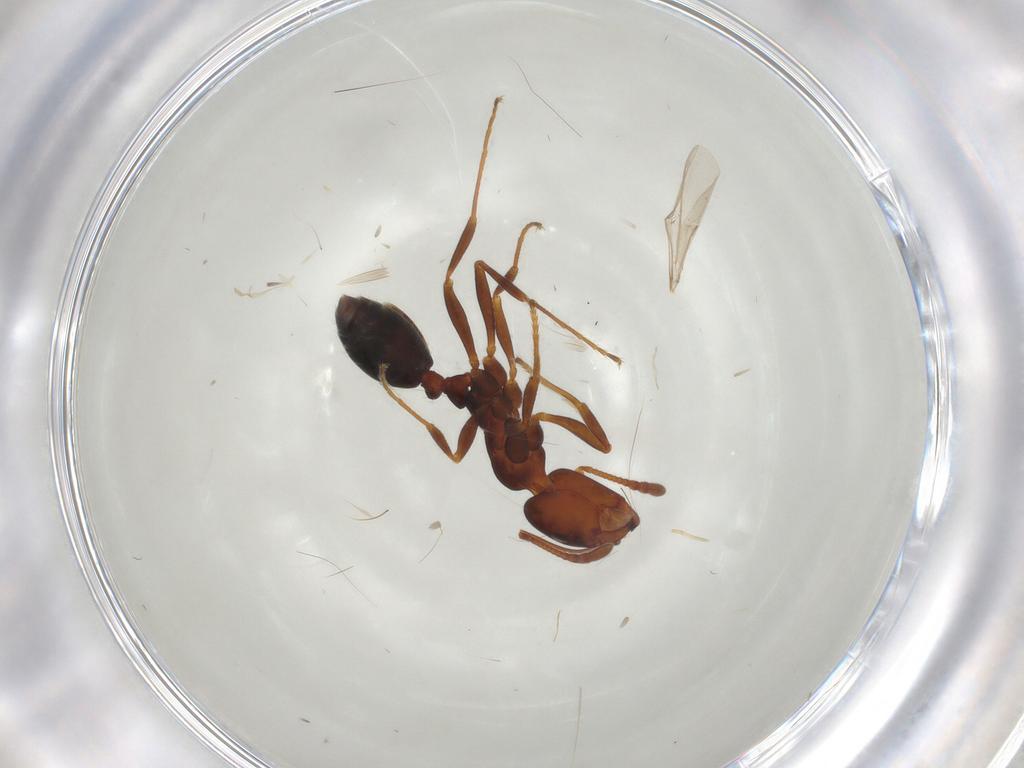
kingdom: Animalia
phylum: Arthropoda
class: Insecta
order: Hymenoptera
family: Formicidae
